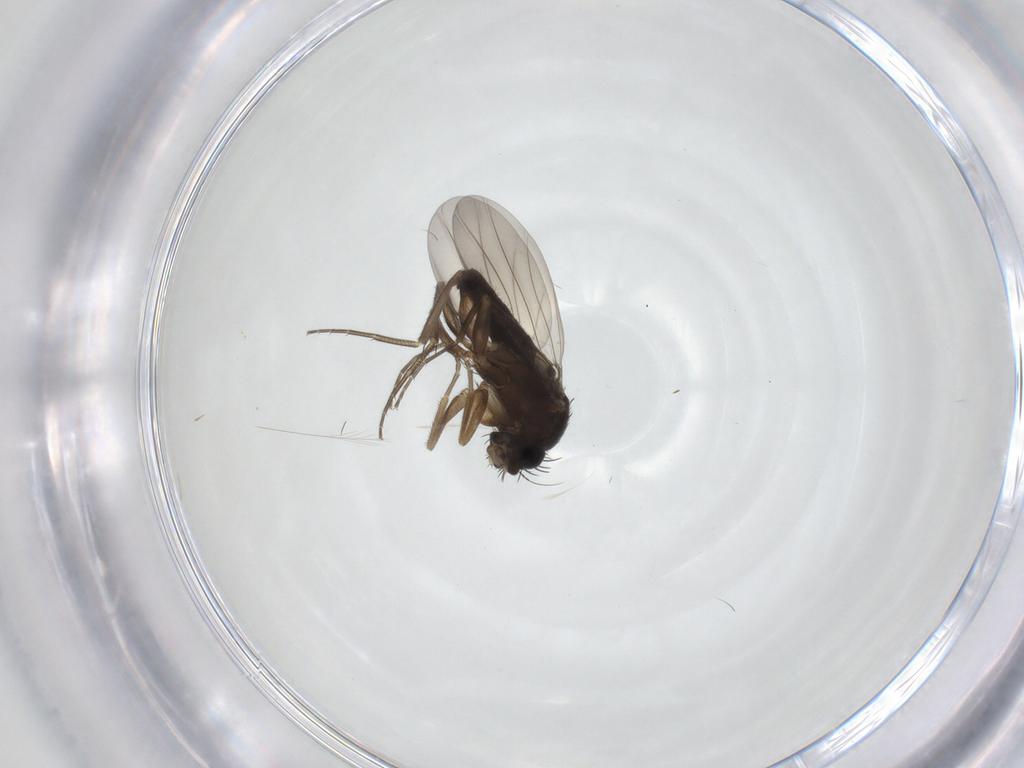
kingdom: Animalia
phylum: Arthropoda
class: Insecta
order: Diptera
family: Phoridae
